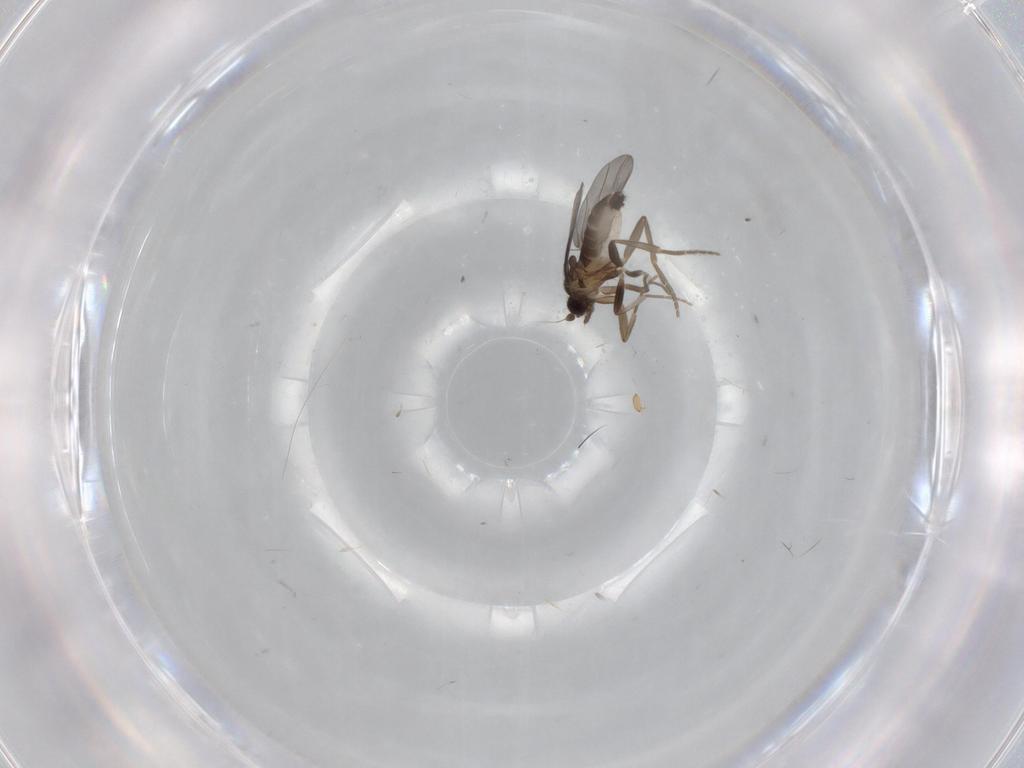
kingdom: Animalia
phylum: Arthropoda
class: Insecta
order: Diptera
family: Phoridae
